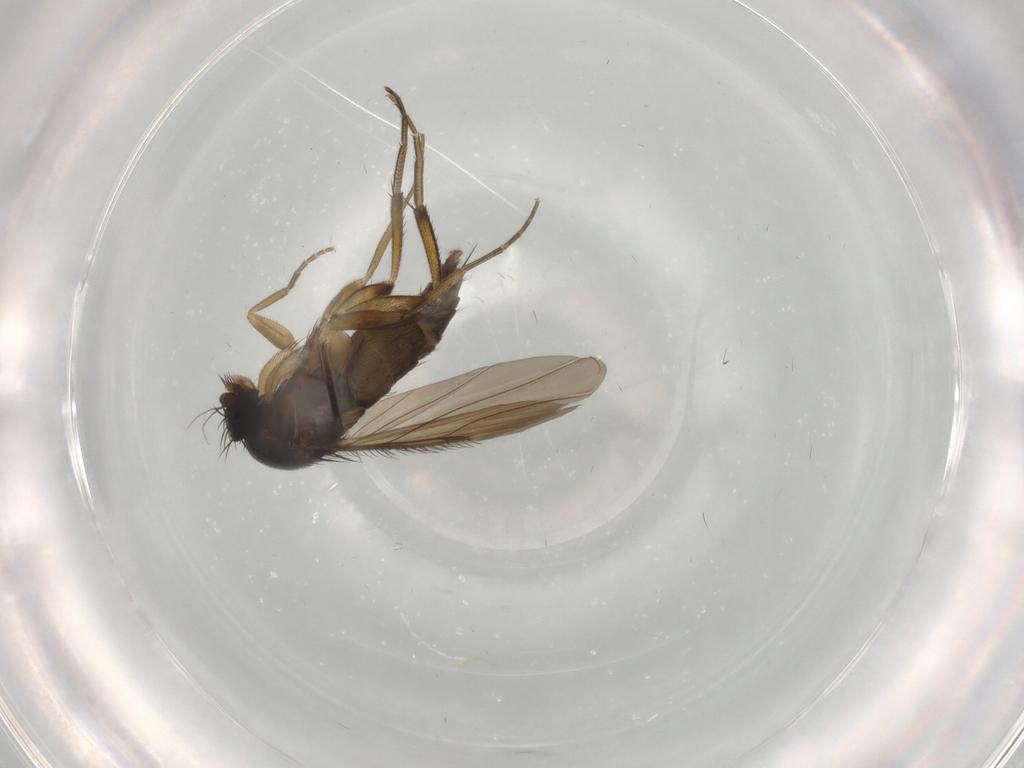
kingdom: Animalia
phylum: Arthropoda
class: Insecta
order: Diptera
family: Phoridae
